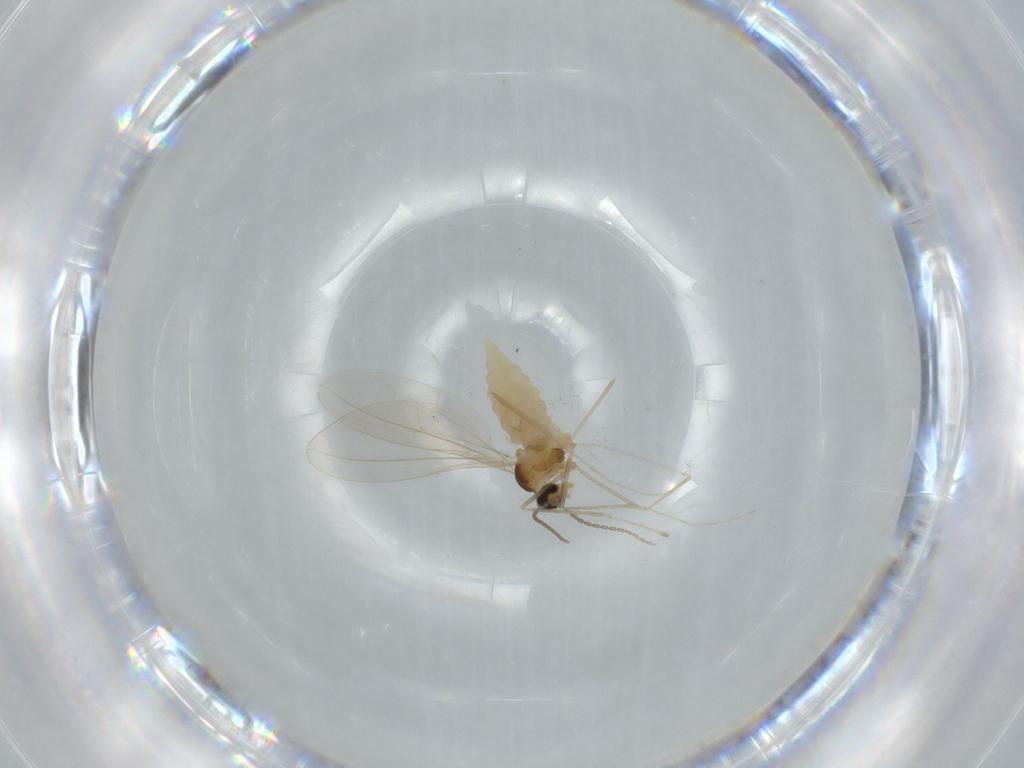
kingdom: Animalia
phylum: Arthropoda
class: Insecta
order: Diptera
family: Cecidomyiidae
